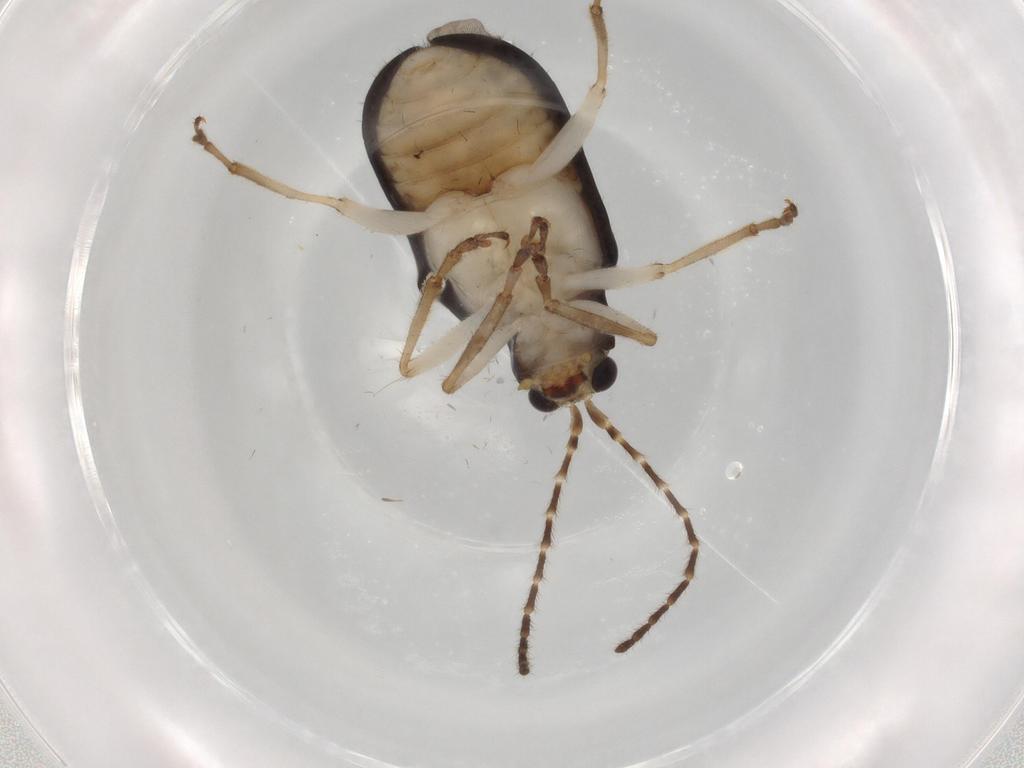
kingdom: Animalia
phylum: Arthropoda
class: Insecta
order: Coleoptera
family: Chrysomelidae
